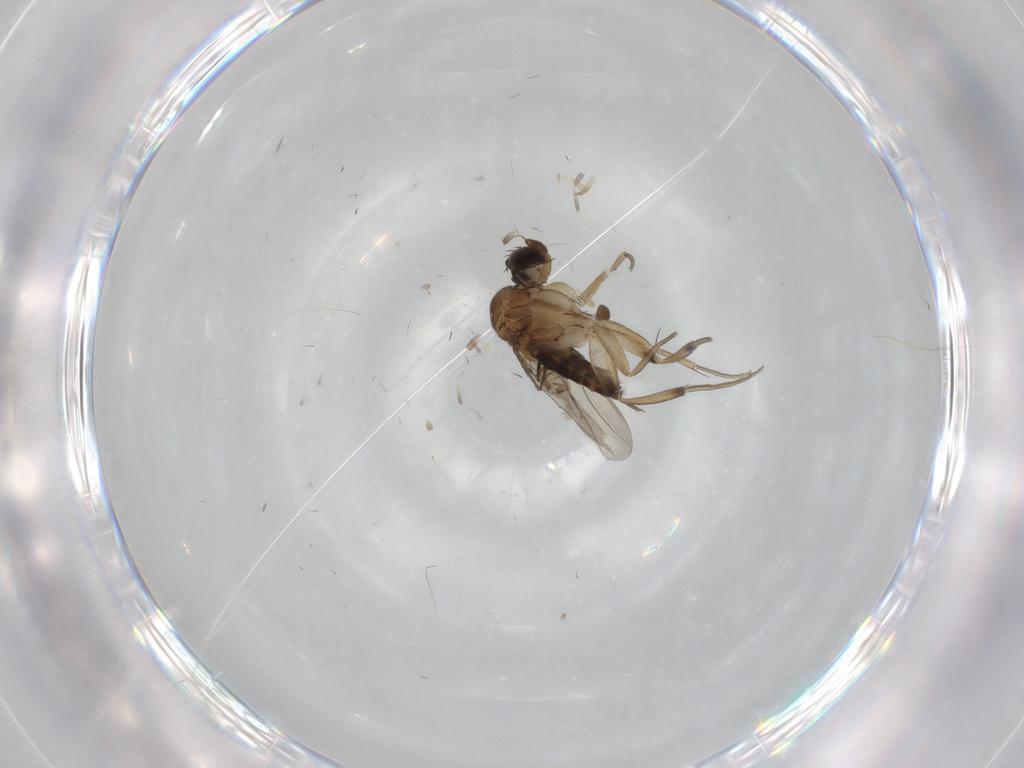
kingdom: Animalia
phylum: Arthropoda
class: Insecta
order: Diptera
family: Phoridae
